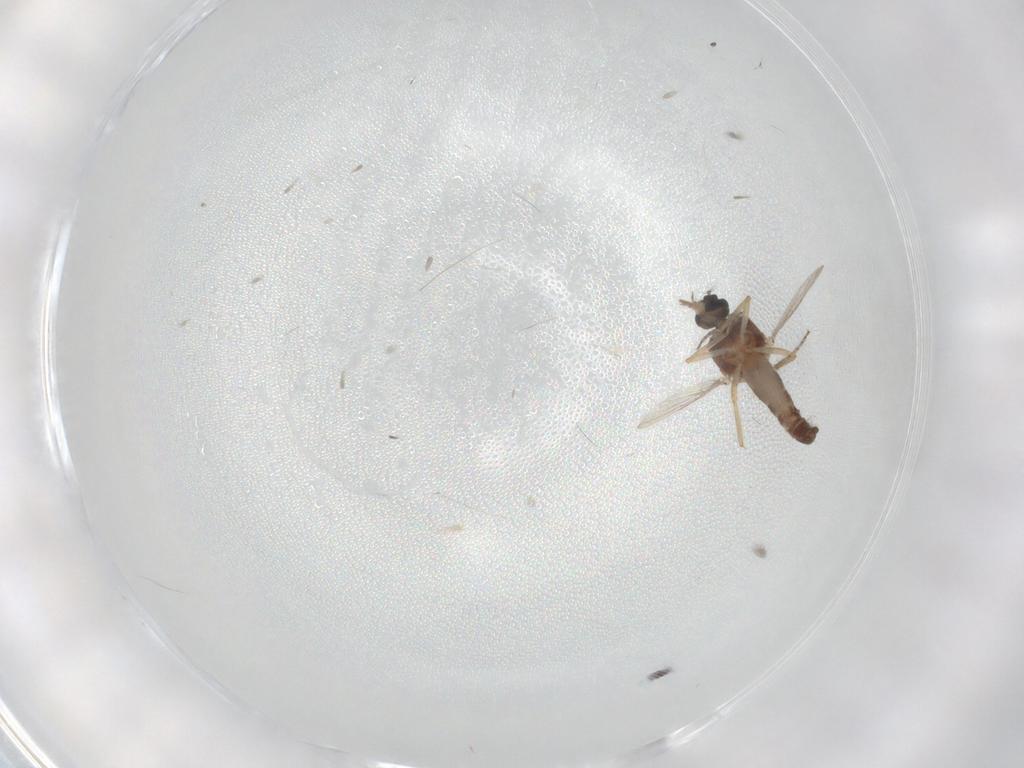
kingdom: Animalia
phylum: Arthropoda
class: Insecta
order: Diptera
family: Ceratopogonidae
